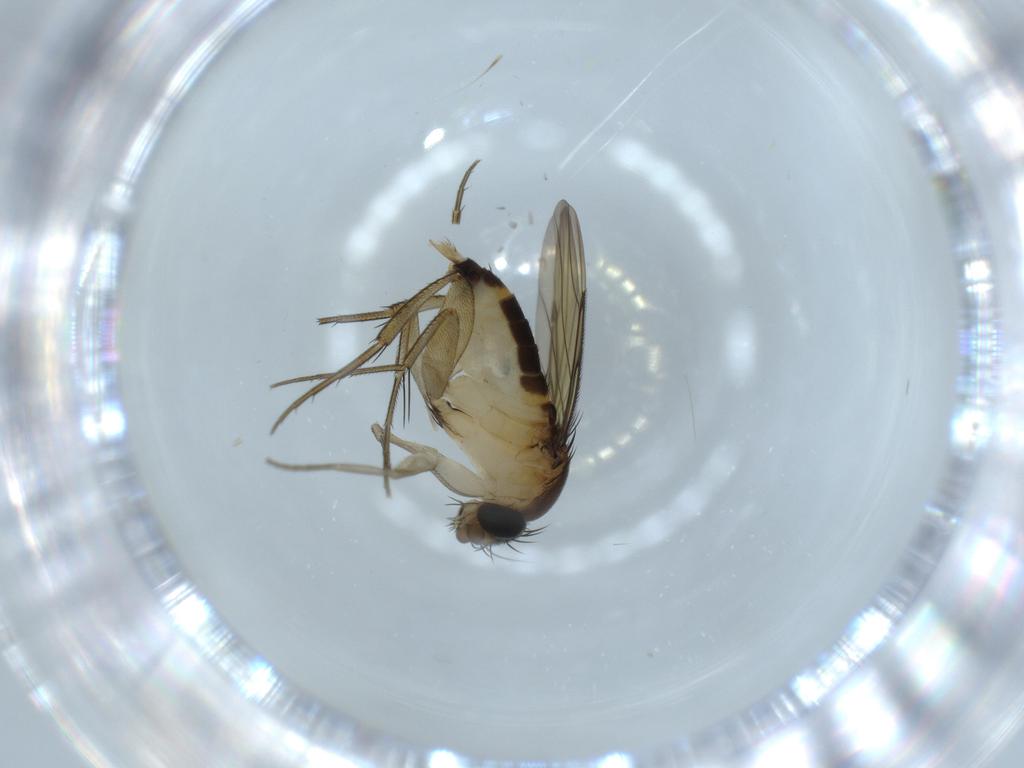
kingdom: Animalia
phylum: Arthropoda
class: Insecta
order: Diptera
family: Phoridae
